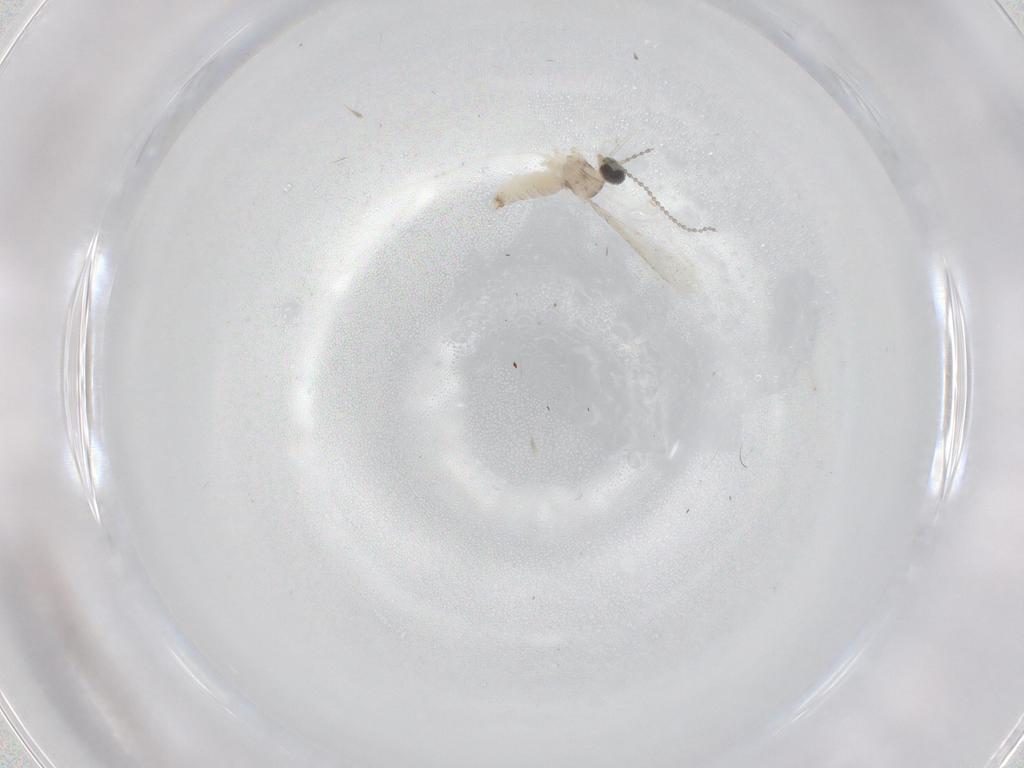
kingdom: Animalia
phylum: Arthropoda
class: Insecta
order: Diptera
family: Cecidomyiidae
